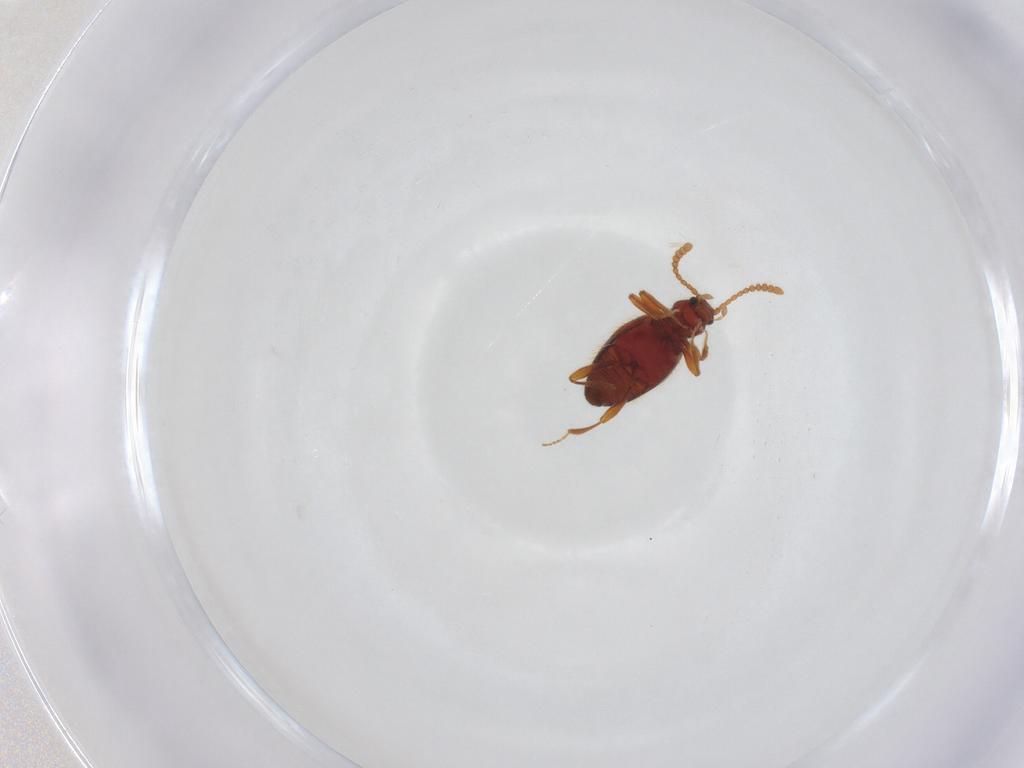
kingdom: Animalia
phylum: Arthropoda
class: Insecta
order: Coleoptera
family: Staphylinidae
